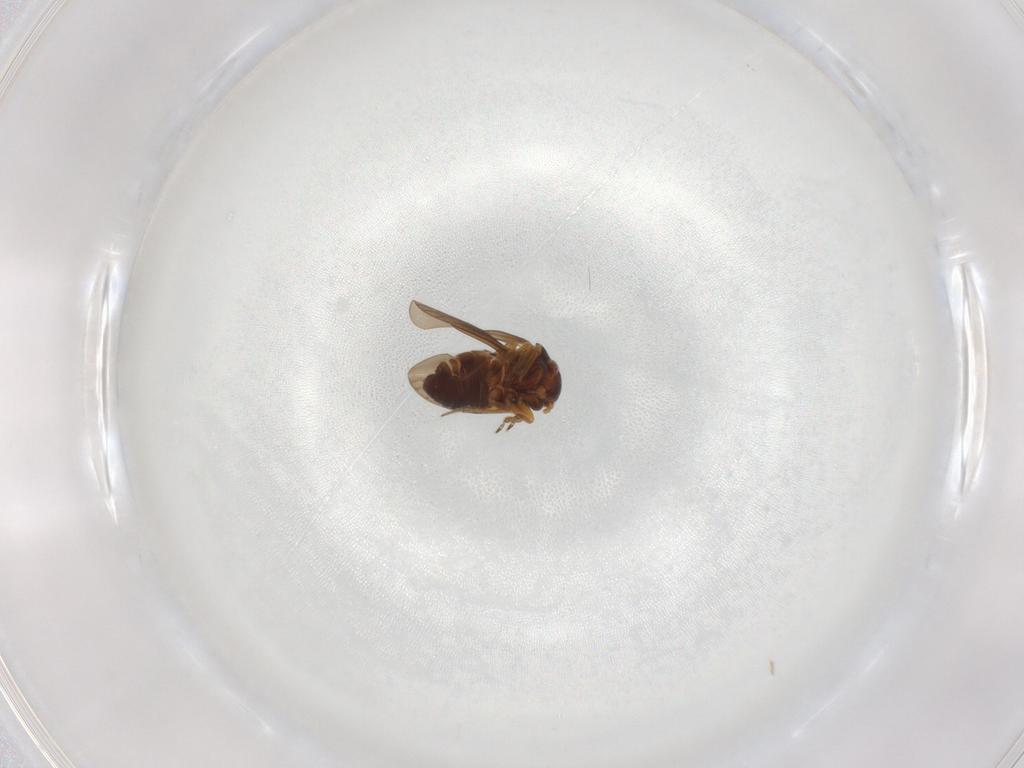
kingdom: Animalia
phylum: Arthropoda
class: Insecta
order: Hemiptera
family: Schizopteridae
